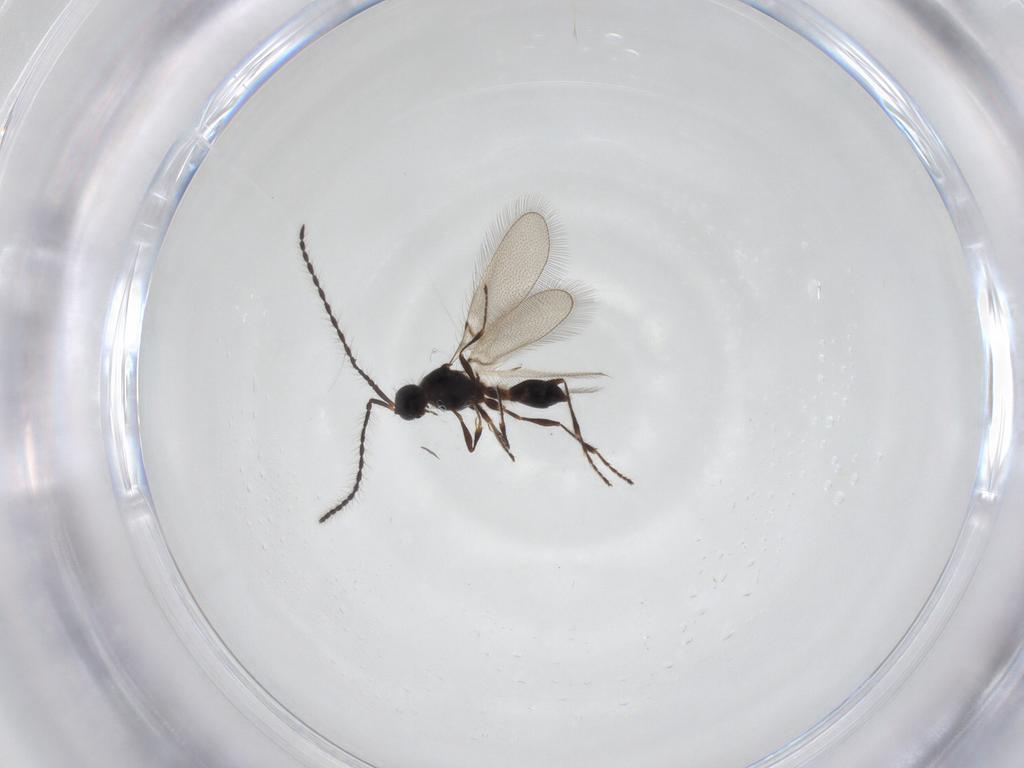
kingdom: Animalia
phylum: Arthropoda
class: Insecta
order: Hymenoptera
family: Diapriidae
